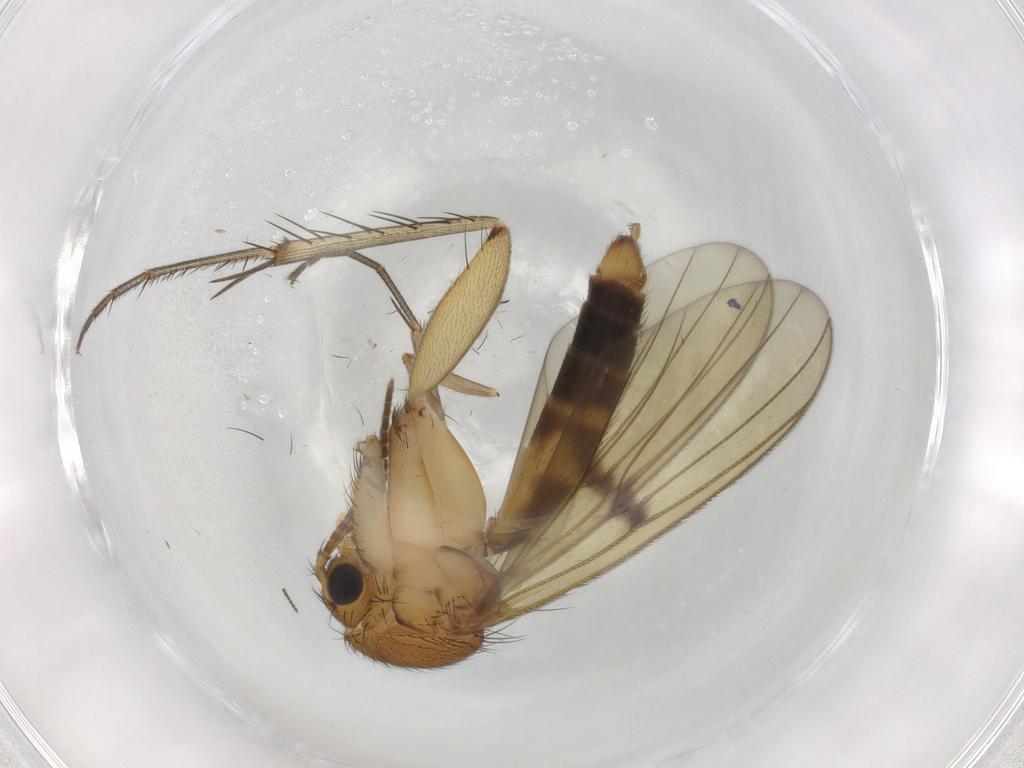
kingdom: Animalia
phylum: Arthropoda
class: Insecta
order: Diptera
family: Mycetophilidae
